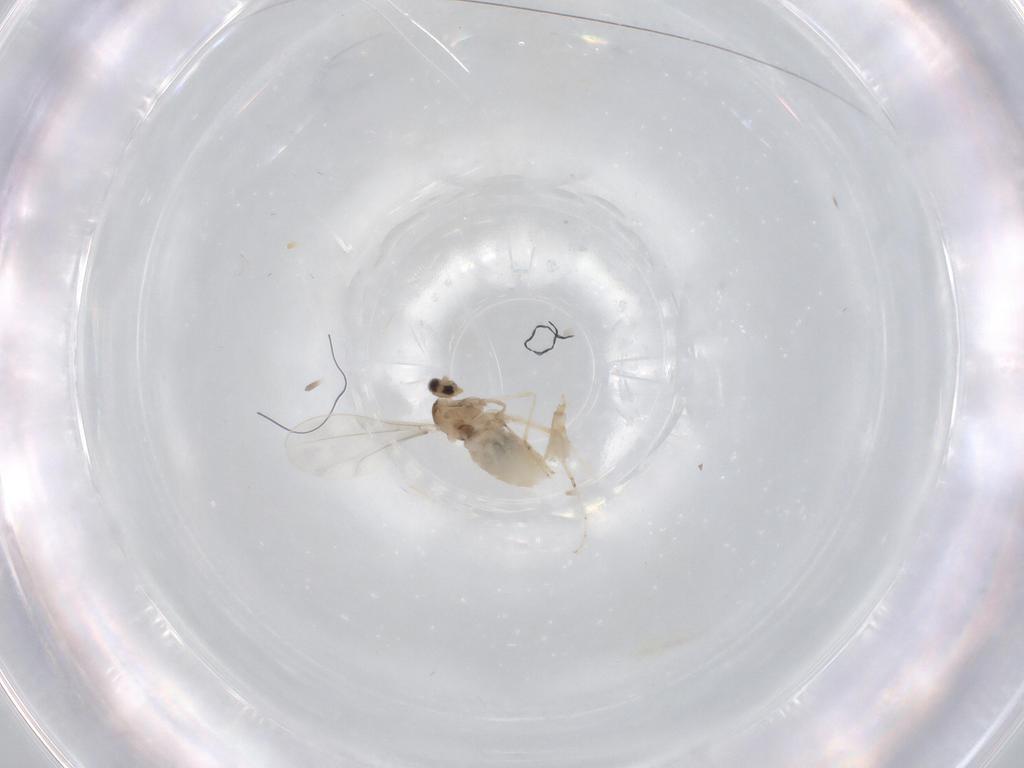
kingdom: Animalia
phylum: Arthropoda
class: Insecta
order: Diptera
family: Cecidomyiidae
